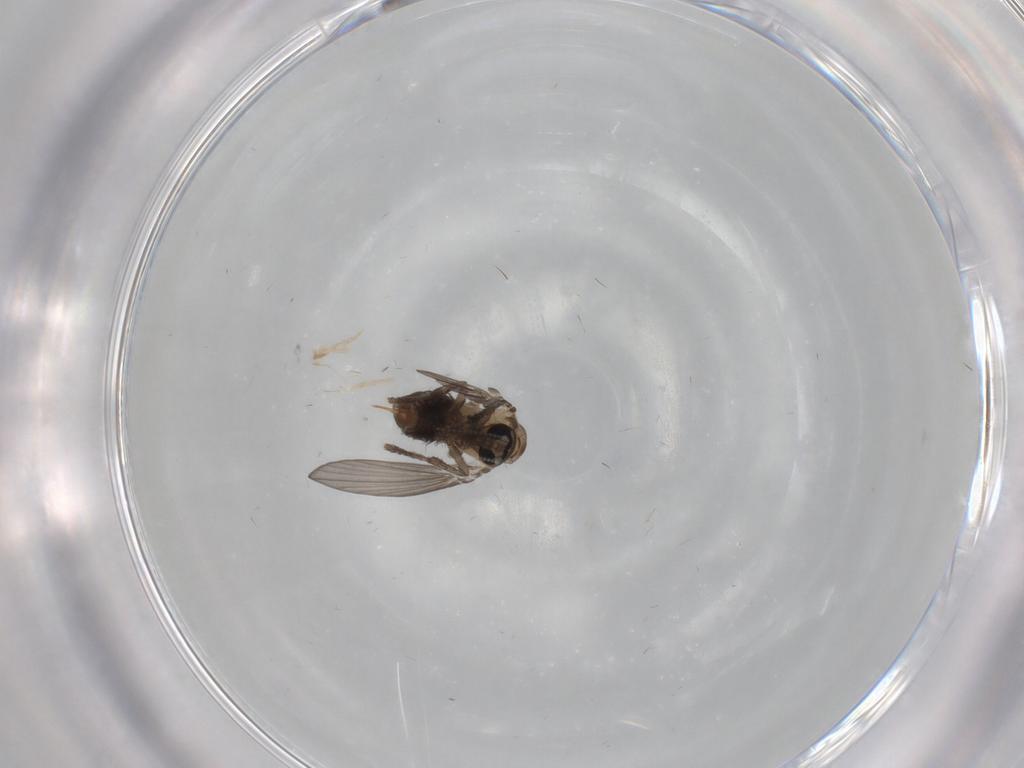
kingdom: Animalia
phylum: Arthropoda
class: Insecta
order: Diptera
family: Psychodidae
